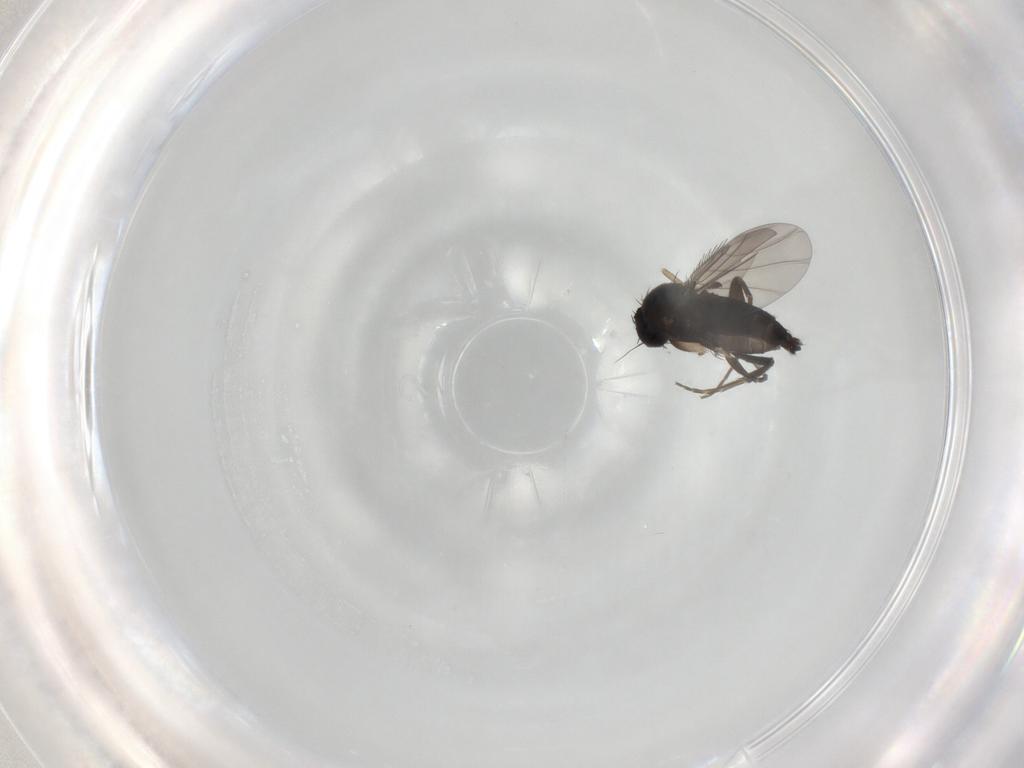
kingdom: Animalia
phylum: Arthropoda
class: Insecta
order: Diptera
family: Phoridae
